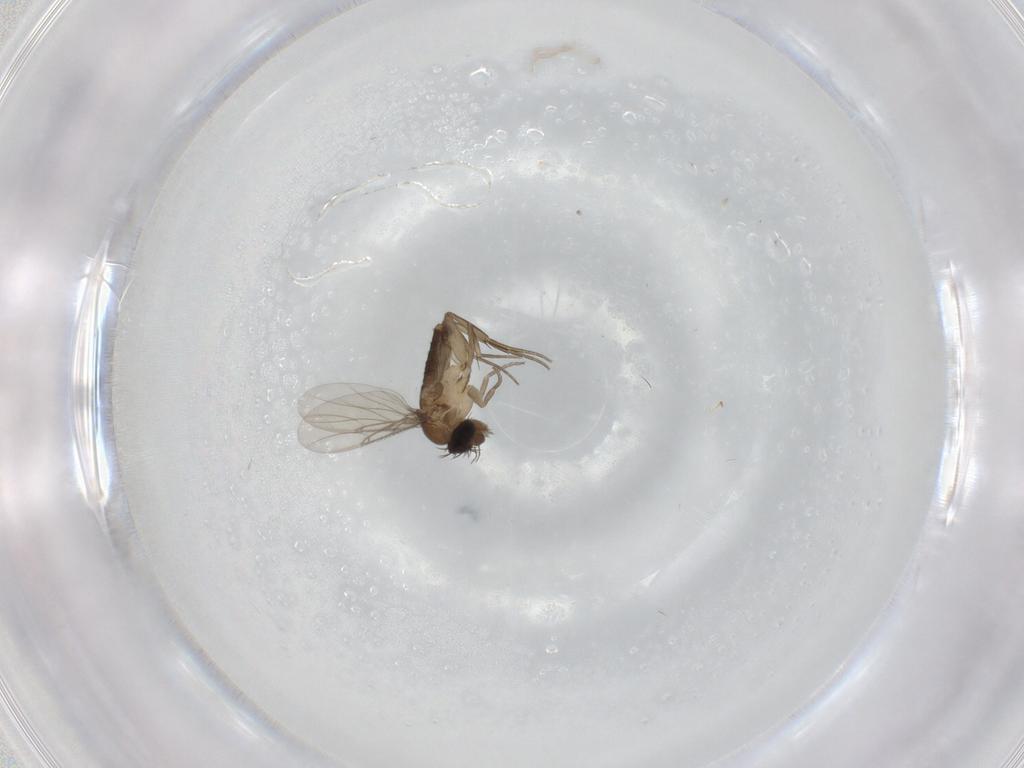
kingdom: Animalia
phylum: Arthropoda
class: Insecta
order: Diptera
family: Phoridae
